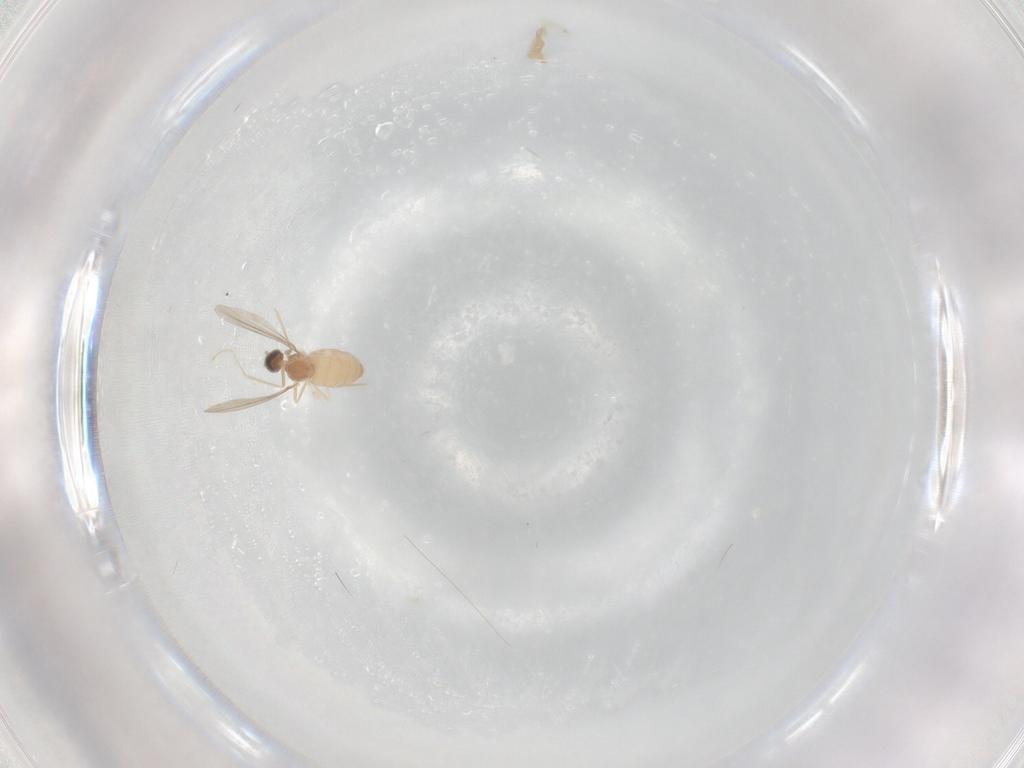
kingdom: Animalia
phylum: Arthropoda
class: Insecta
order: Diptera
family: Cecidomyiidae
